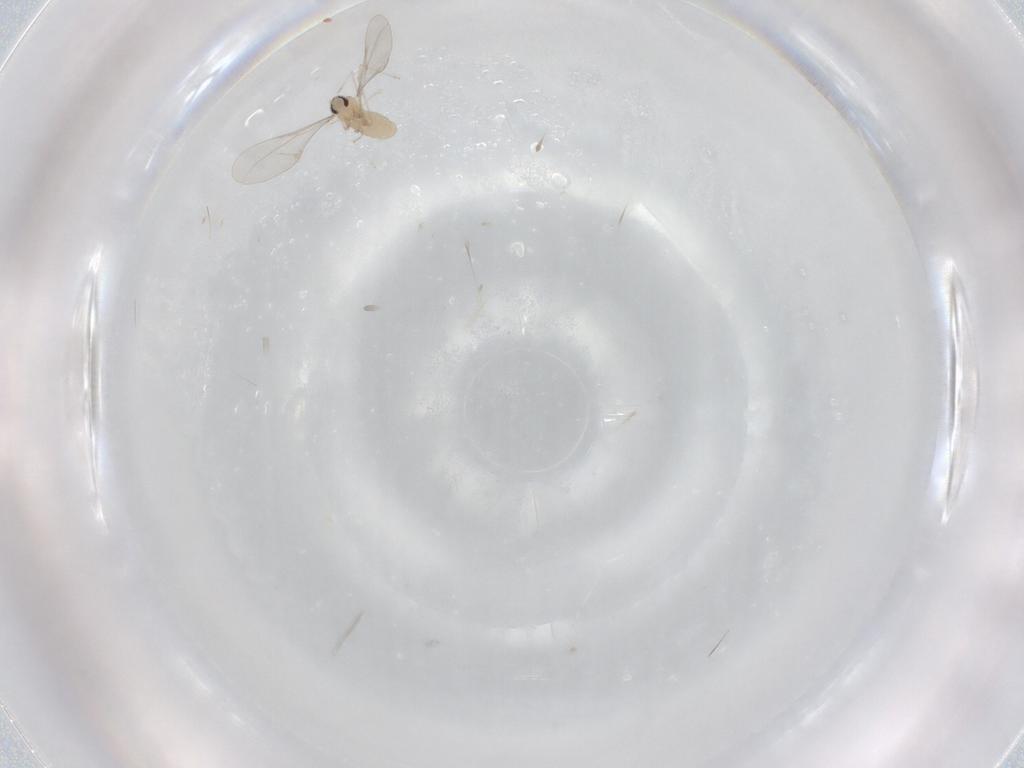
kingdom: Animalia
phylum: Arthropoda
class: Insecta
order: Diptera
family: Cecidomyiidae
